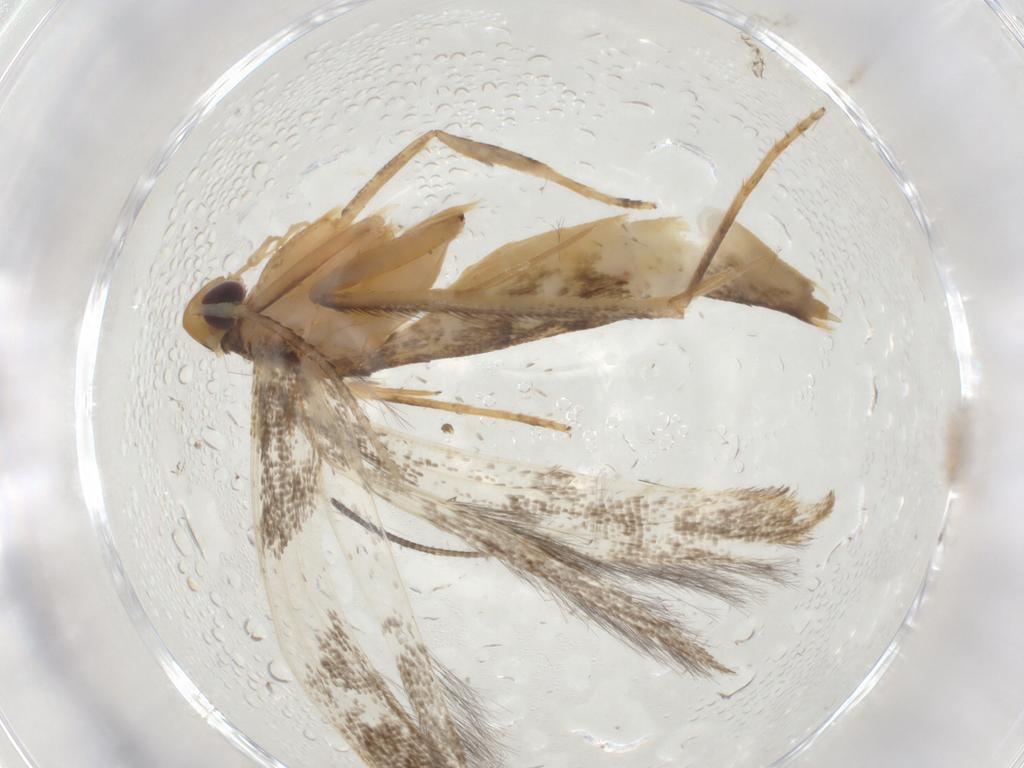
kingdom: Animalia
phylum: Arthropoda
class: Insecta
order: Lepidoptera
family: Pterolonchidae
